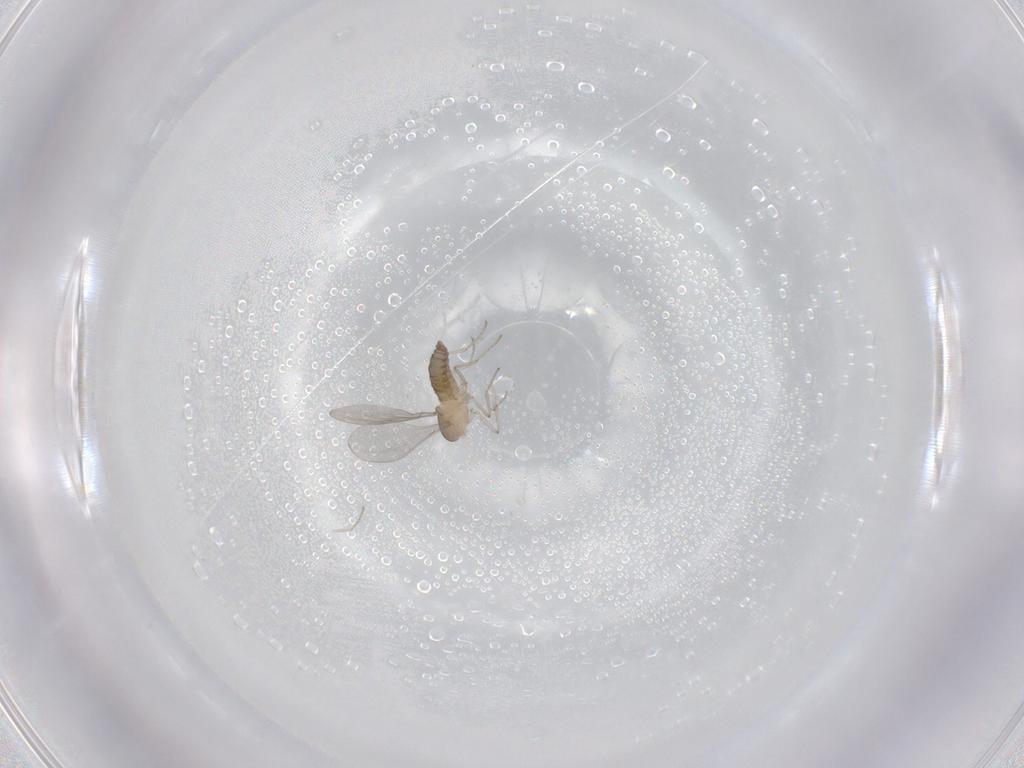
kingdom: Animalia
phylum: Arthropoda
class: Insecta
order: Diptera
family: Cecidomyiidae
